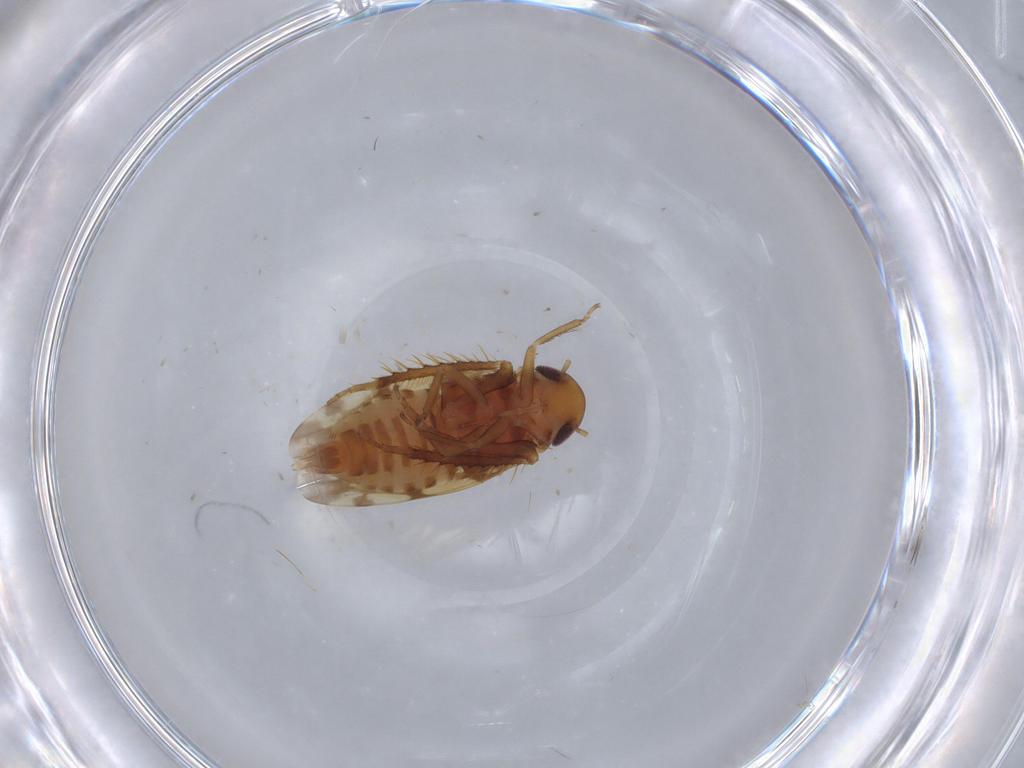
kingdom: Animalia
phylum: Arthropoda
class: Insecta
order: Hemiptera
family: Cicadellidae
